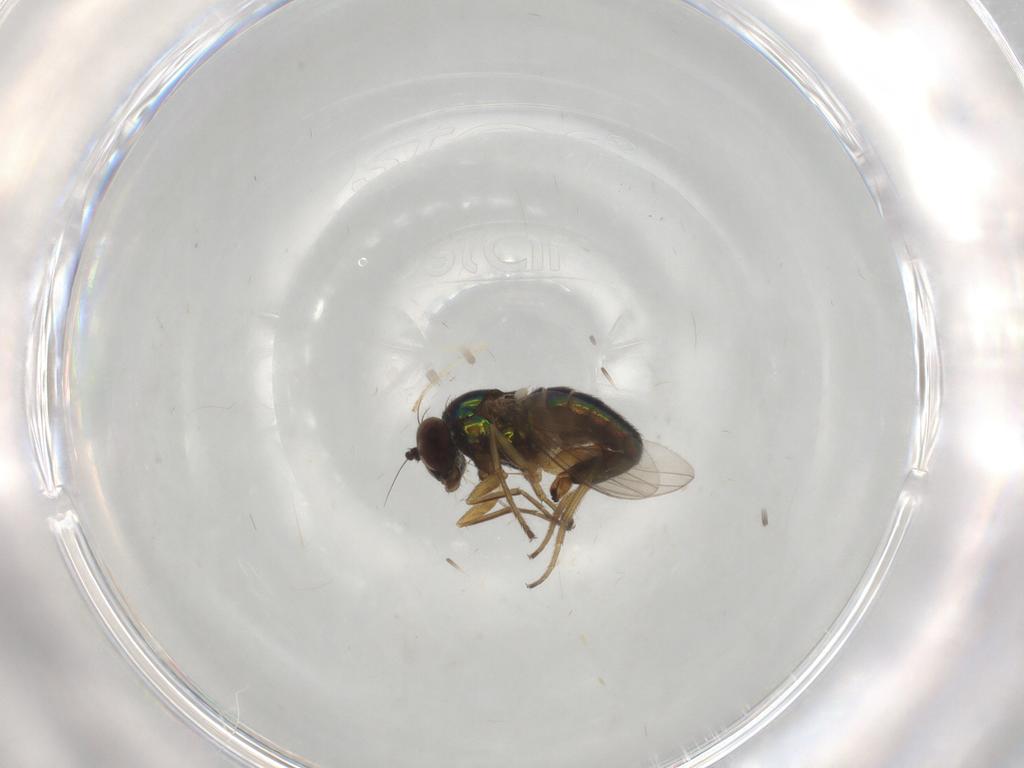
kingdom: Animalia
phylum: Arthropoda
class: Insecta
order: Diptera
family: Dolichopodidae
